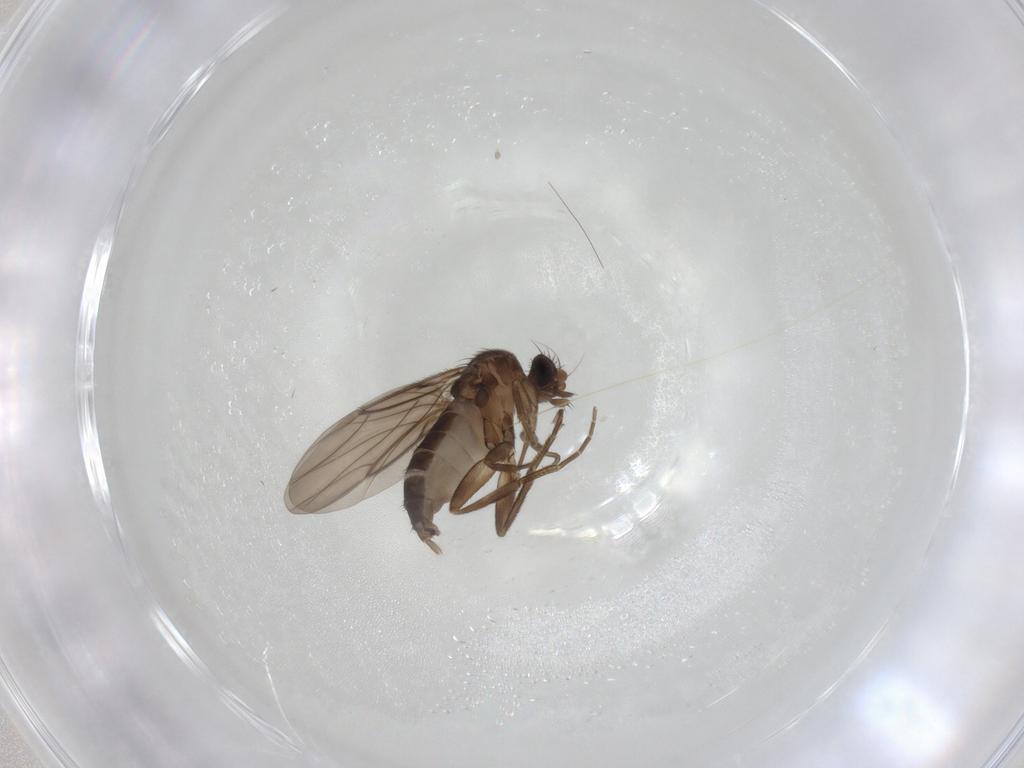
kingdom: Animalia
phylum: Arthropoda
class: Insecta
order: Diptera
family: Phoridae
